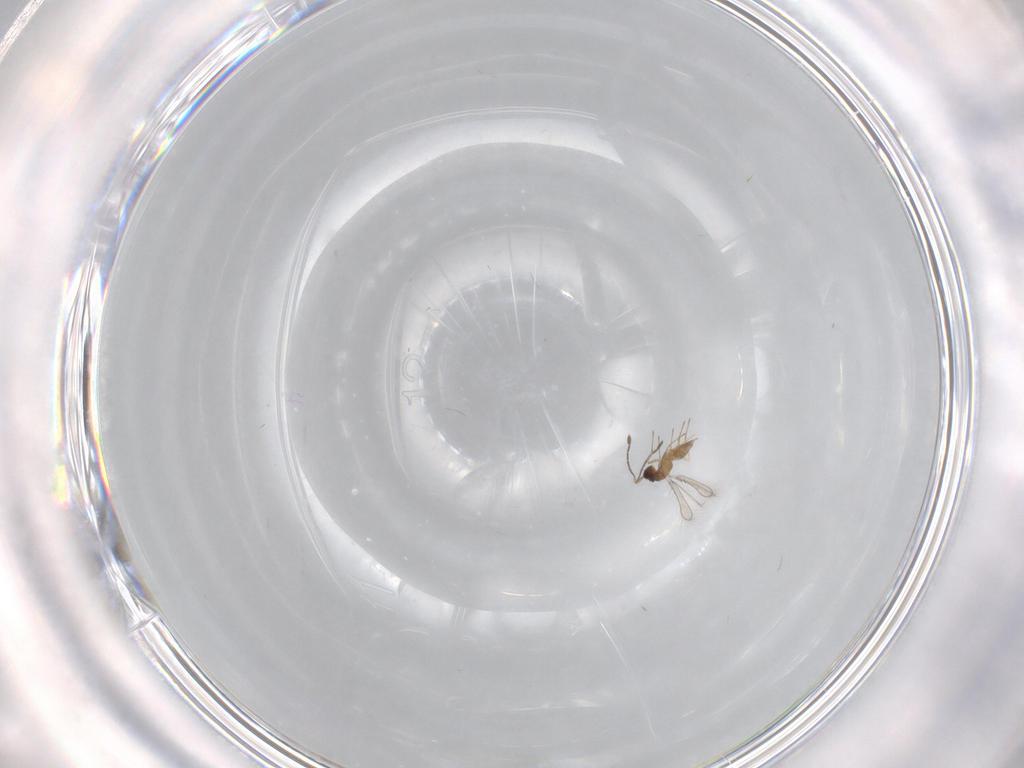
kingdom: Animalia
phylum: Arthropoda
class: Insecta
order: Hymenoptera
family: Mymaridae
